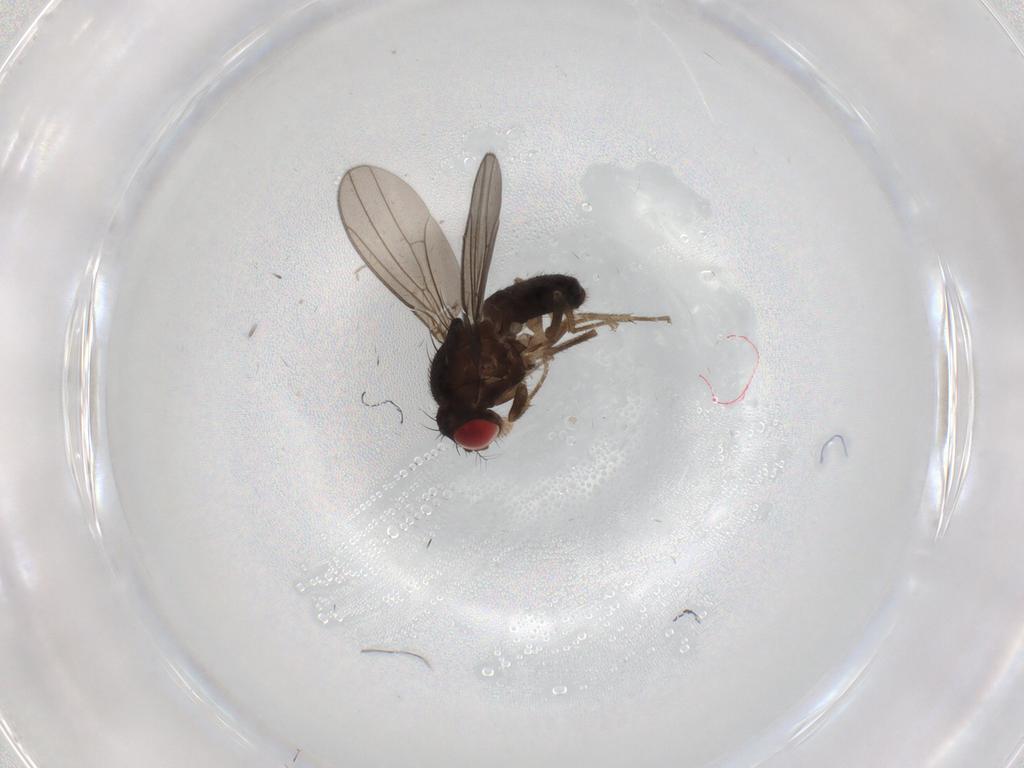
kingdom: Animalia
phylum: Arthropoda
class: Insecta
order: Diptera
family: Drosophilidae
